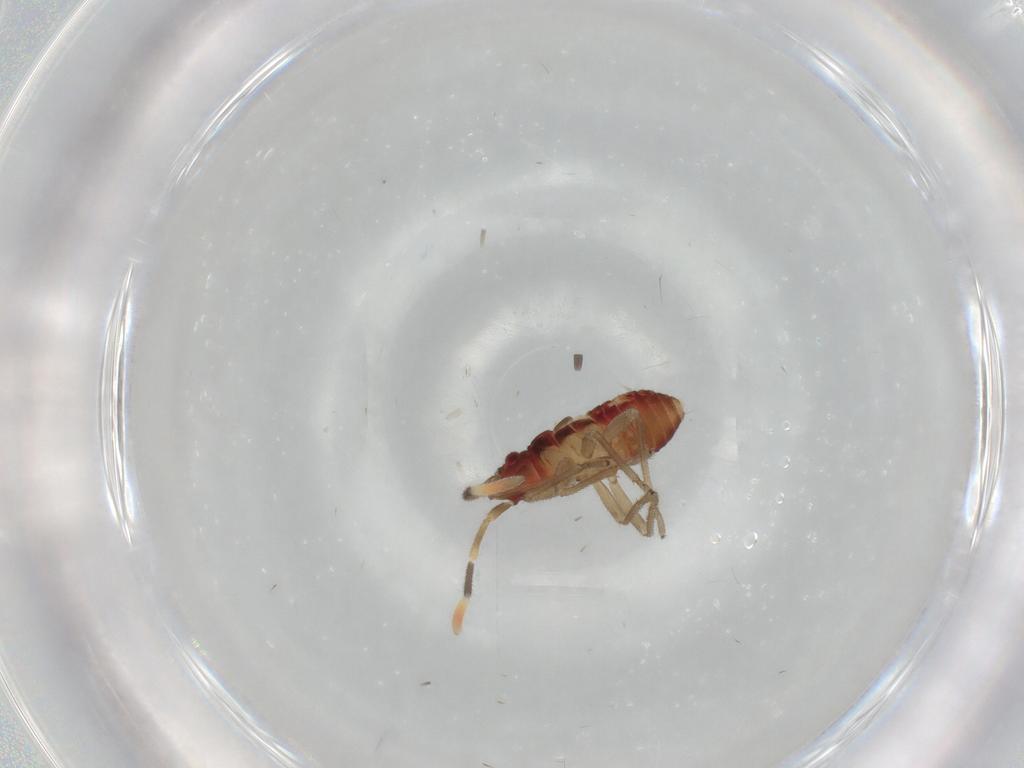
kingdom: Animalia
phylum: Arthropoda
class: Insecta
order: Hemiptera
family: Rhyparochromidae
